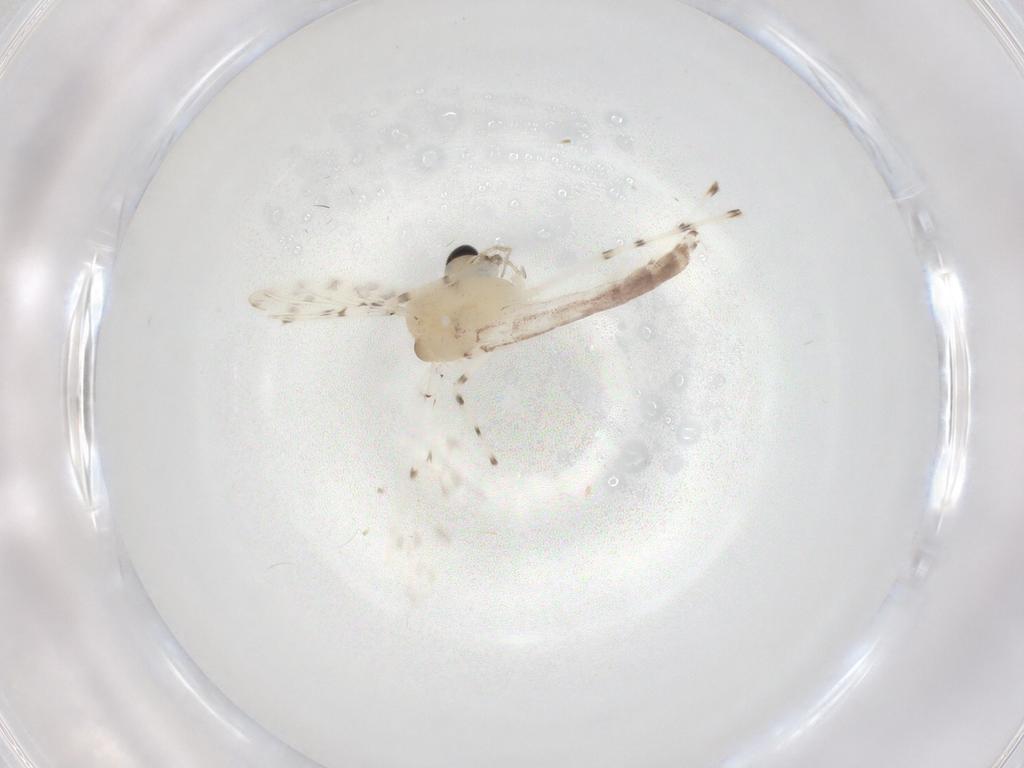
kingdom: Animalia
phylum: Arthropoda
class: Insecta
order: Diptera
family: Chironomidae
